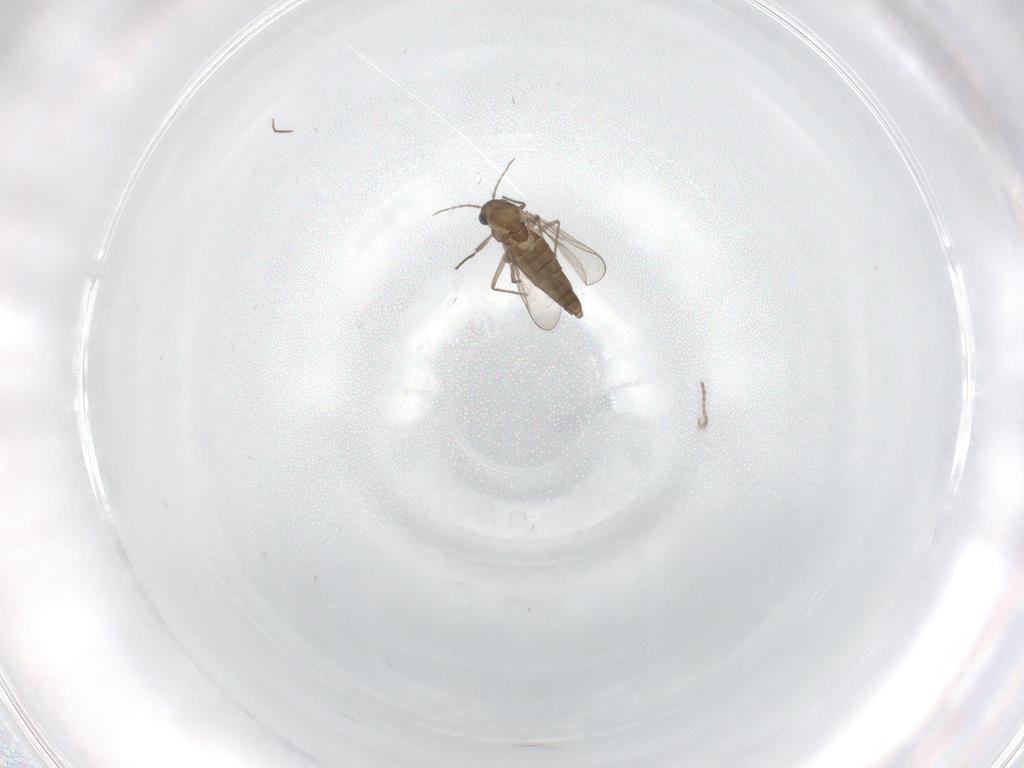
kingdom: Animalia
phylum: Arthropoda
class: Insecta
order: Diptera
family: Chironomidae
